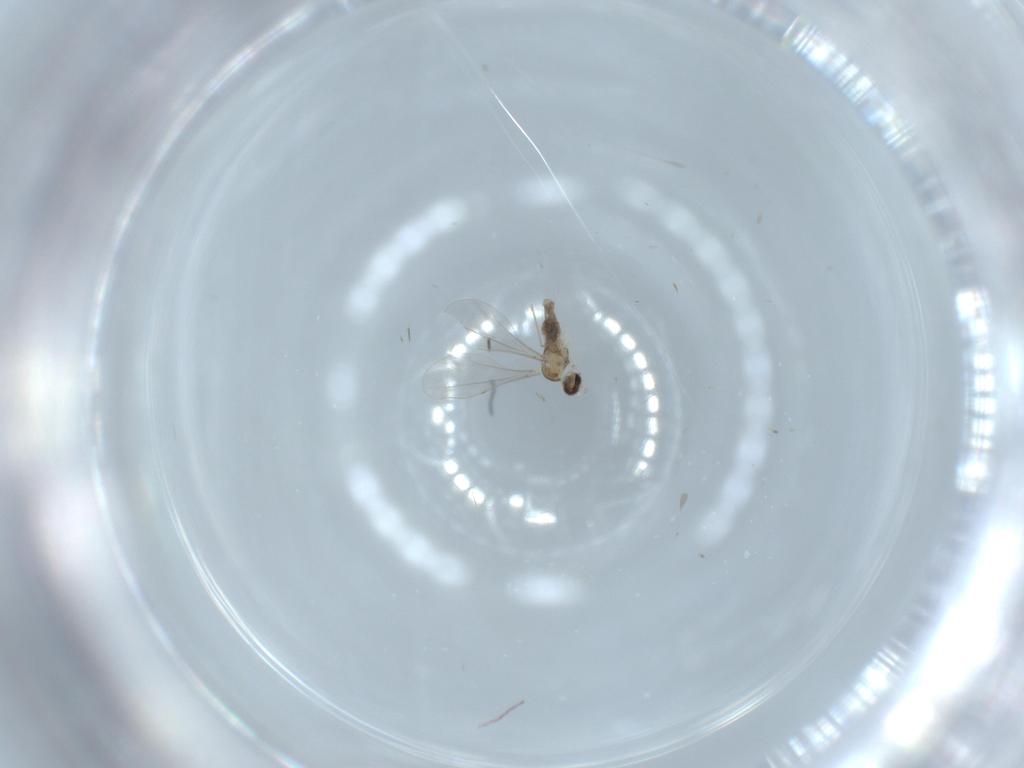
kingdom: Animalia
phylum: Arthropoda
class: Insecta
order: Diptera
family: Cecidomyiidae
